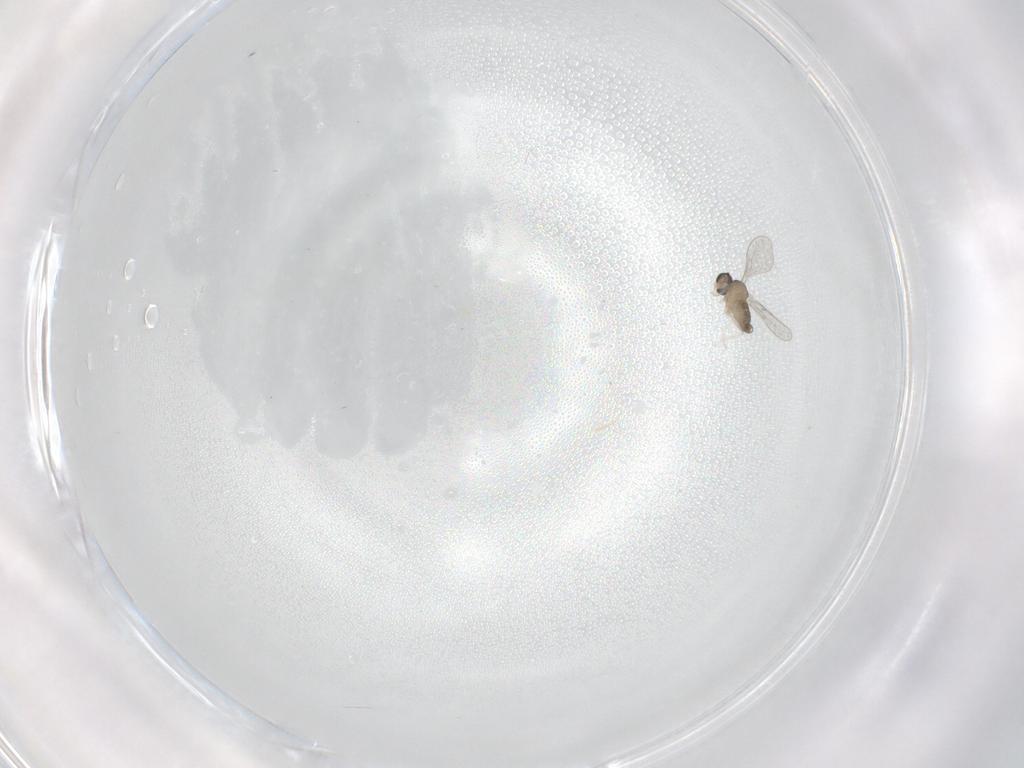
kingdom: Animalia
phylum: Arthropoda
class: Insecta
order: Diptera
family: Cecidomyiidae
